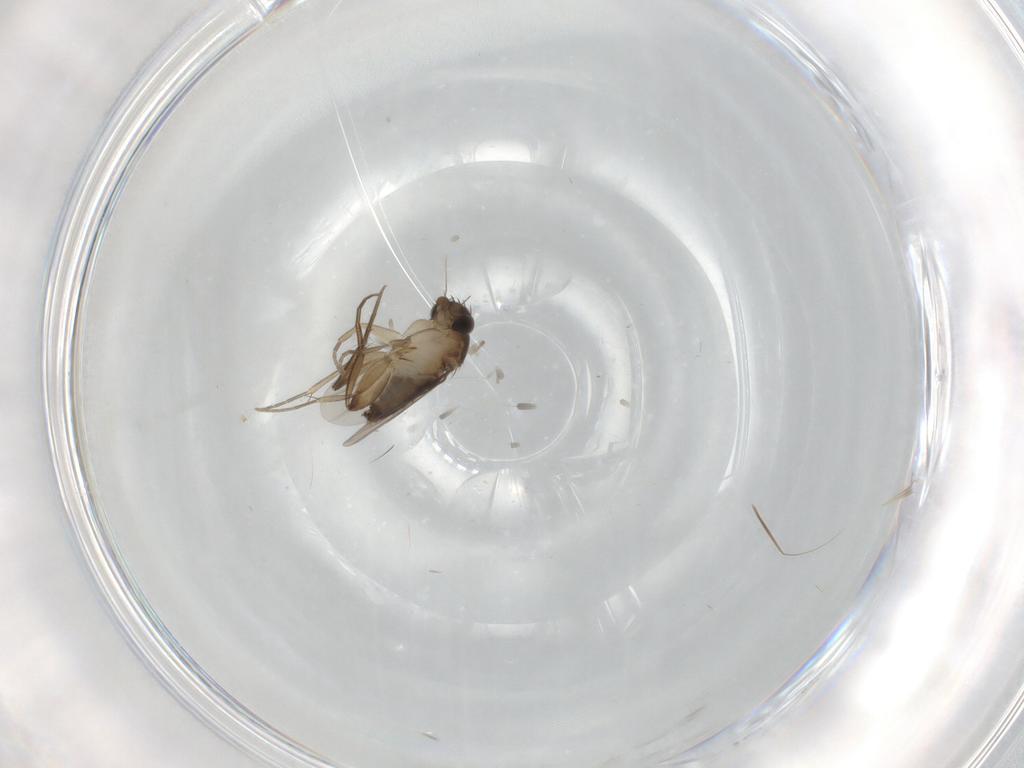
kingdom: Animalia
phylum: Arthropoda
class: Insecta
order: Diptera
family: Phoridae
